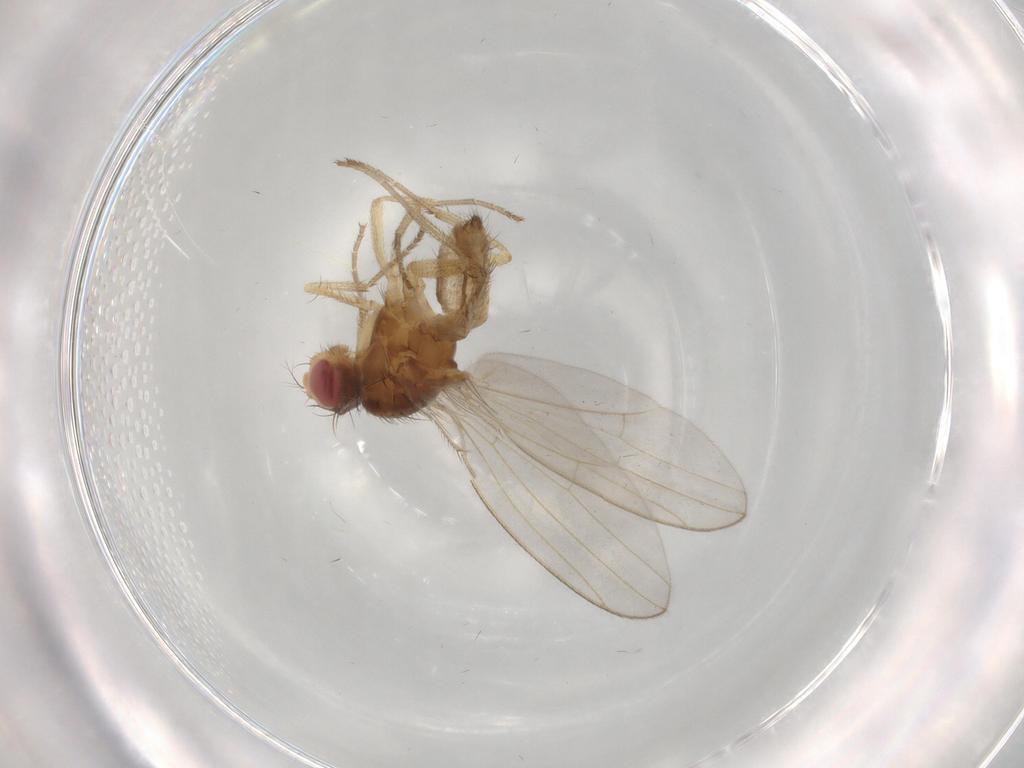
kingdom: Animalia
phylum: Arthropoda
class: Insecta
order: Diptera
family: Drosophilidae
